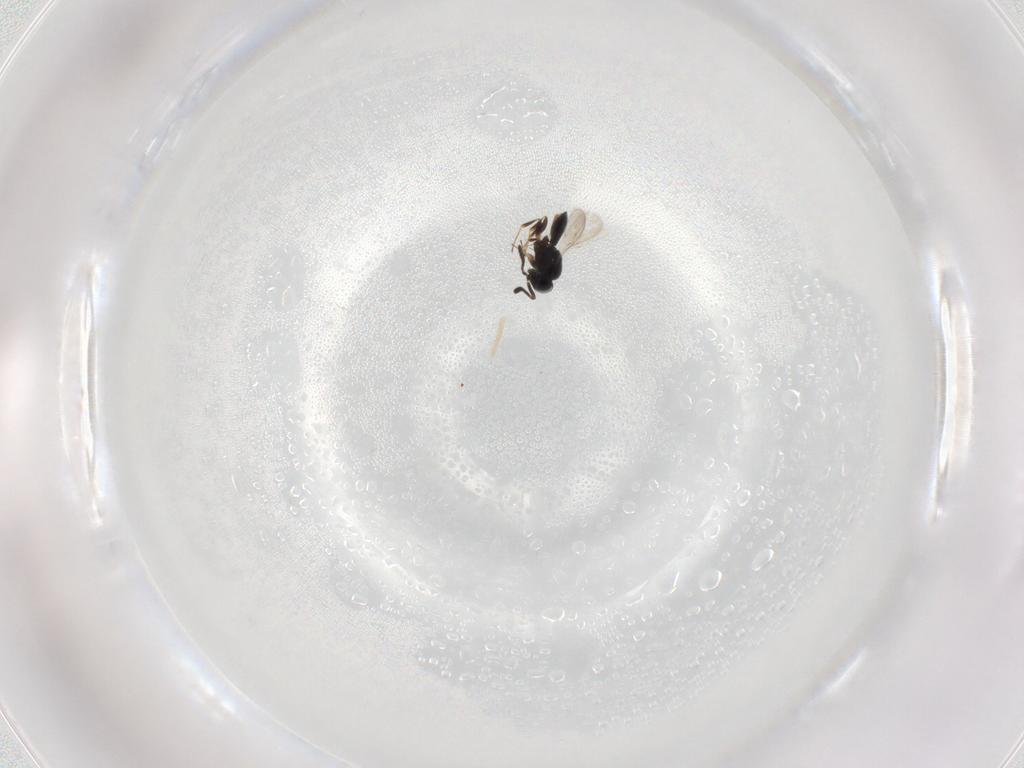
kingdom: Animalia
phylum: Arthropoda
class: Insecta
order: Hymenoptera
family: Scelionidae
